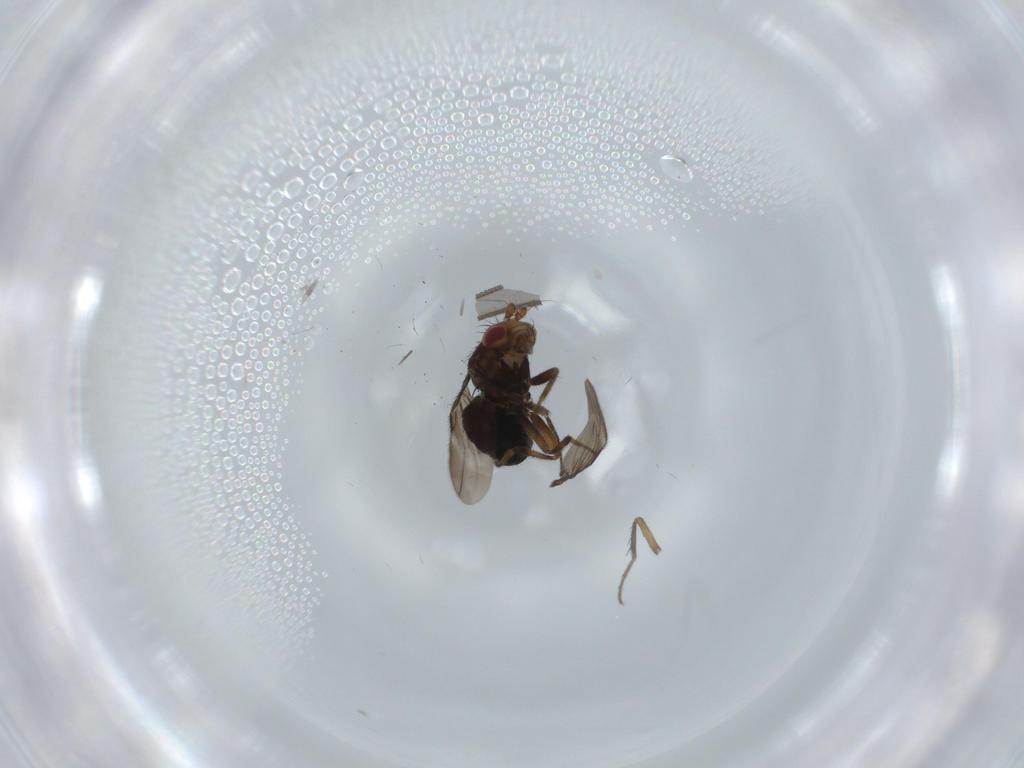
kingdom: Animalia
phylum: Arthropoda
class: Insecta
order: Diptera
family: Sphaeroceridae
